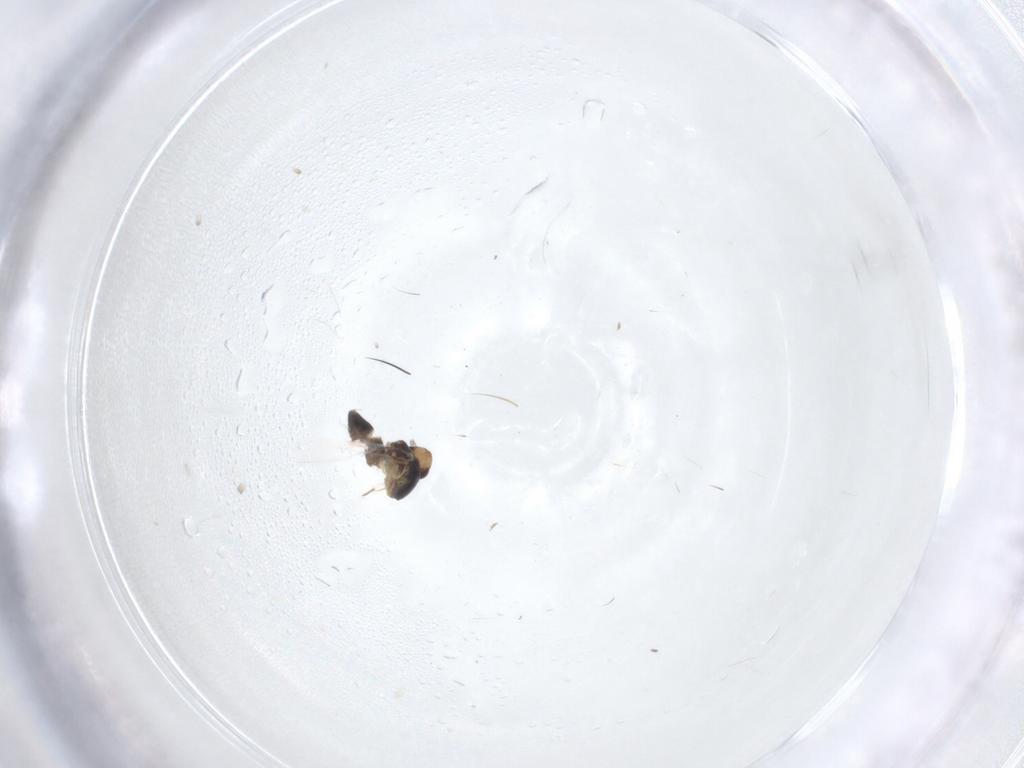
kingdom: Animalia
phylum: Arthropoda
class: Insecta
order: Hymenoptera
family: Mymaridae
